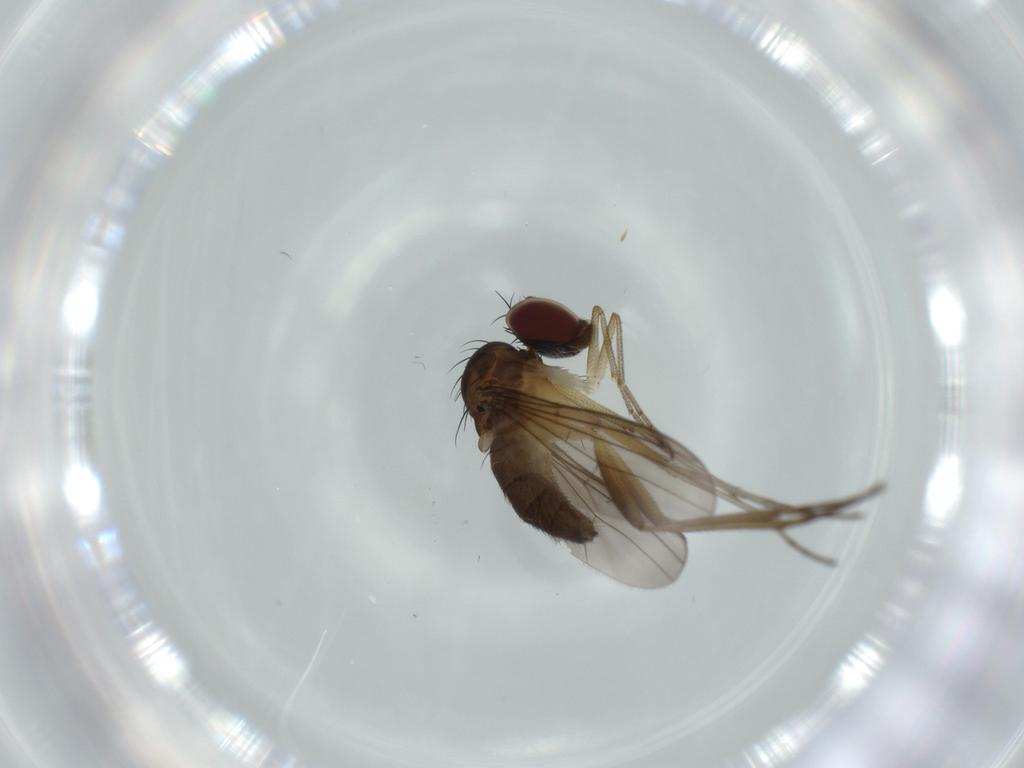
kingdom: Animalia
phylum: Arthropoda
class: Insecta
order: Diptera
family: Dolichopodidae
